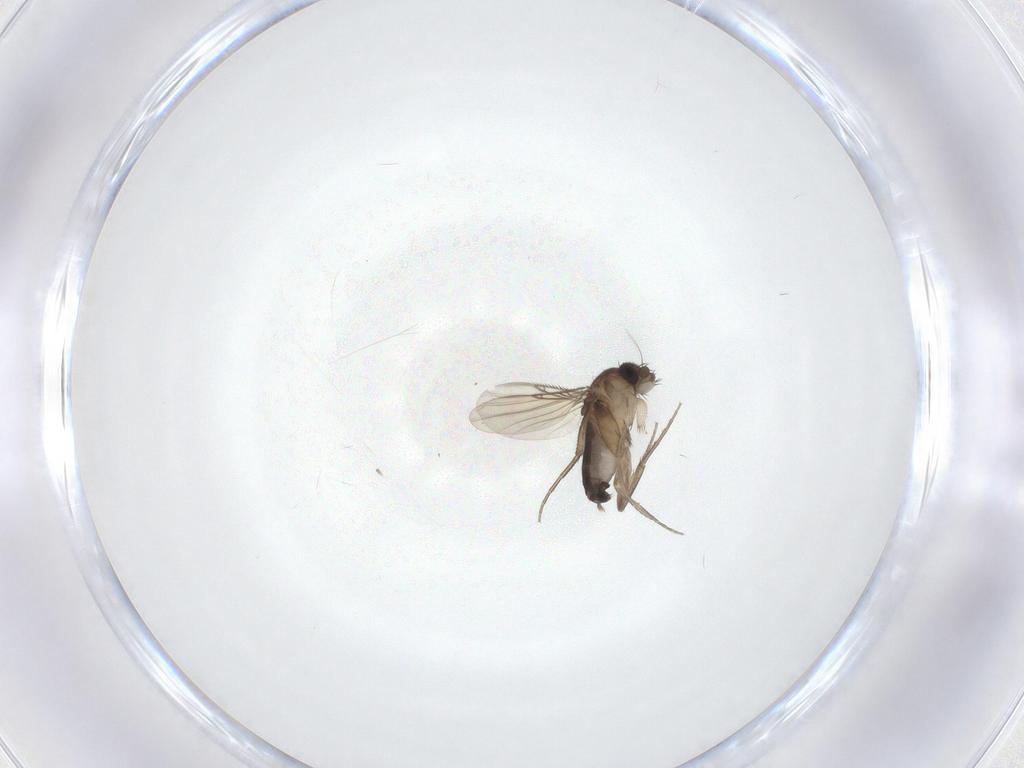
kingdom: Animalia
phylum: Arthropoda
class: Insecta
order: Diptera
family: Phoridae
